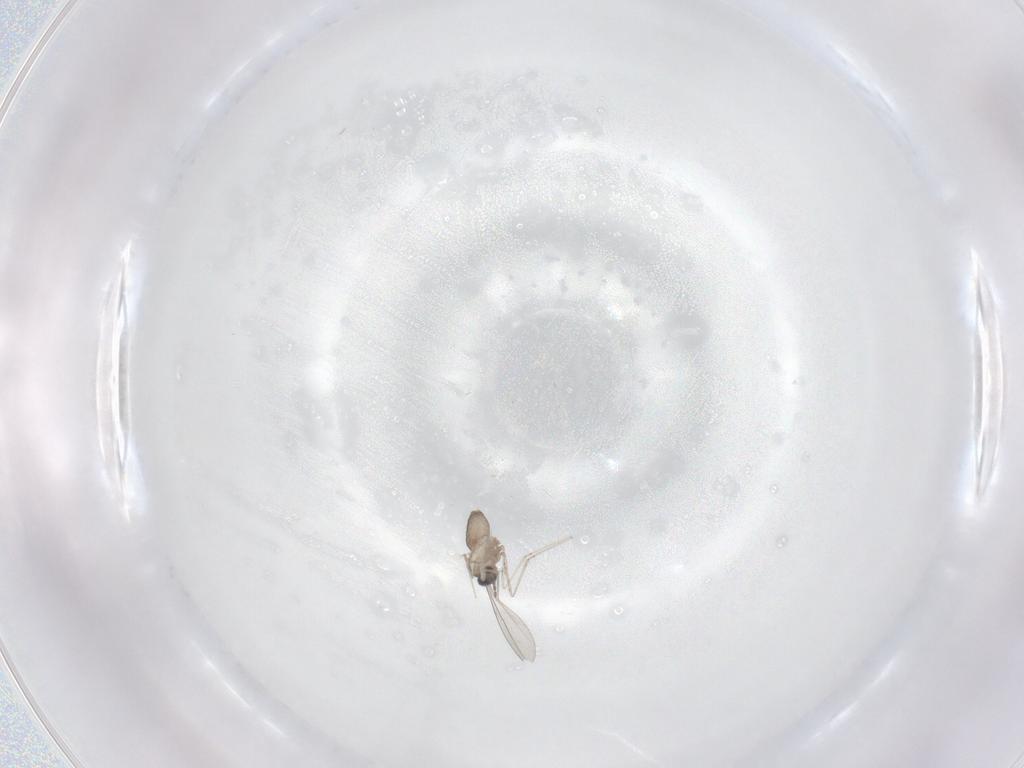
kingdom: Animalia
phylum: Arthropoda
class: Insecta
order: Diptera
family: Cecidomyiidae
